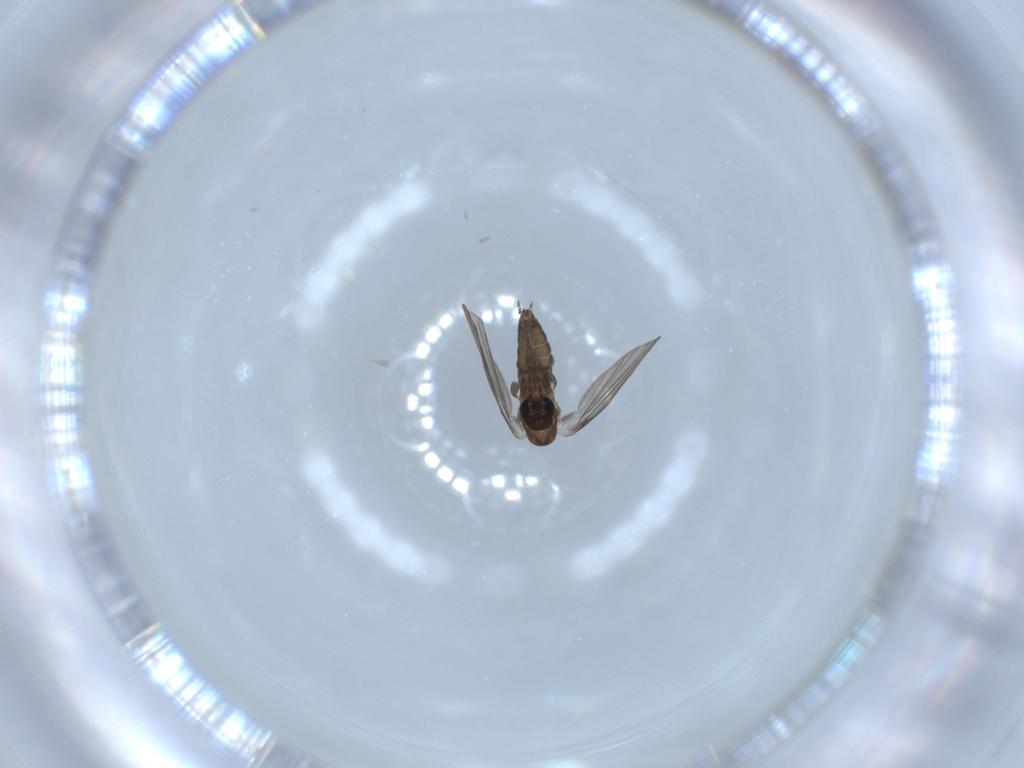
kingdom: Animalia
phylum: Arthropoda
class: Insecta
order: Diptera
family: Psychodidae
